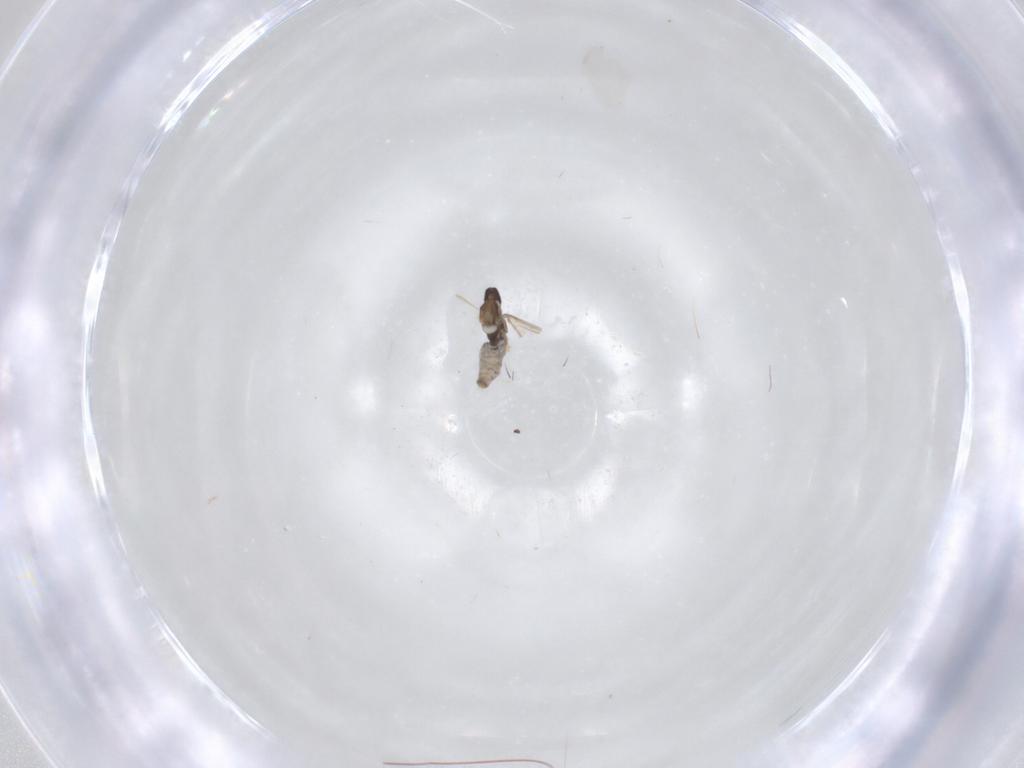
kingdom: Animalia
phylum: Arthropoda
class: Insecta
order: Diptera
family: Cecidomyiidae
